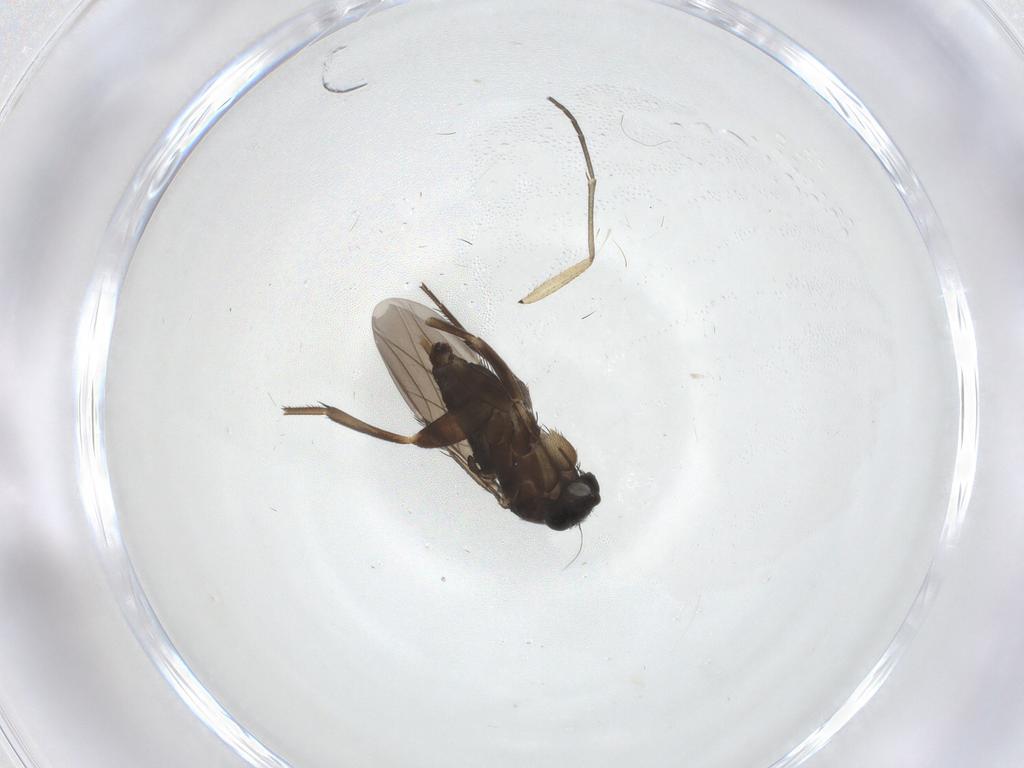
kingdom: Animalia
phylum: Arthropoda
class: Insecta
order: Diptera
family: Phoridae
